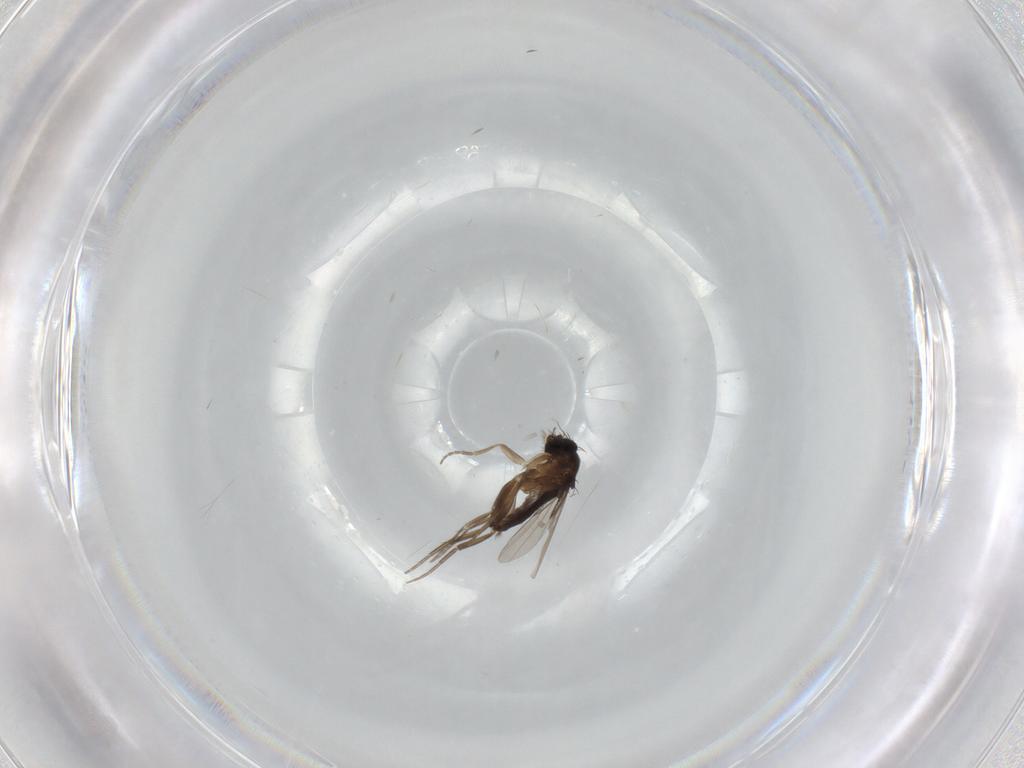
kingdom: Animalia
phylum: Arthropoda
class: Insecta
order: Diptera
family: Phoridae
